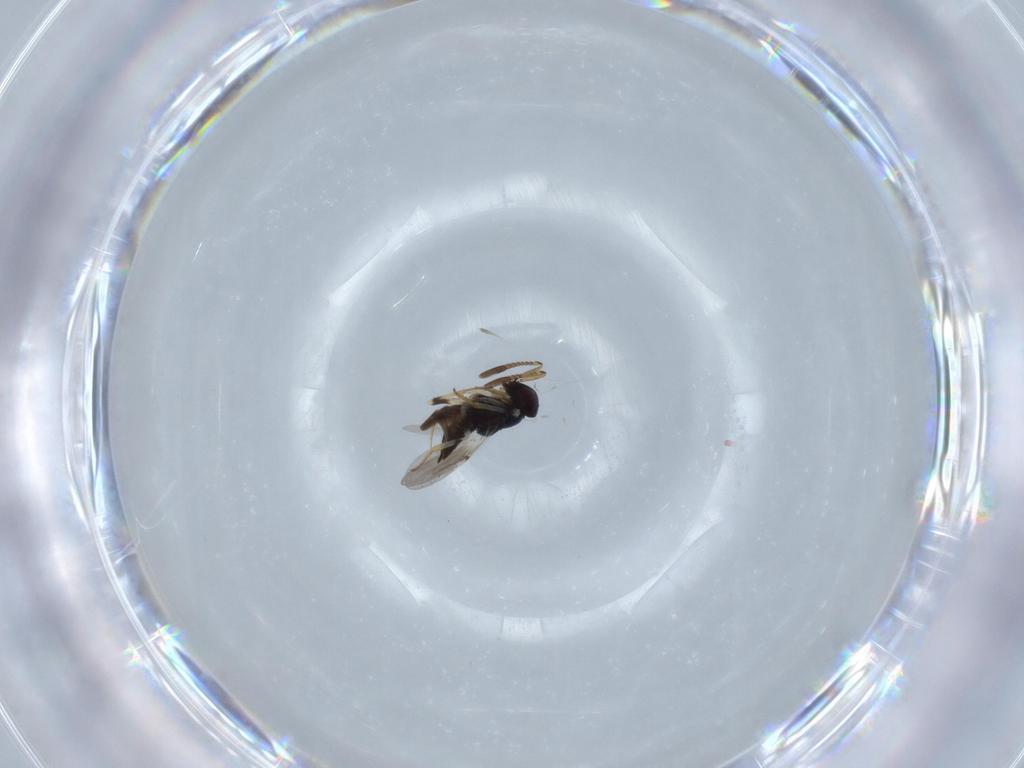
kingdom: Animalia
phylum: Arthropoda
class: Insecta
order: Hymenoptera
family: Encyrtidae
